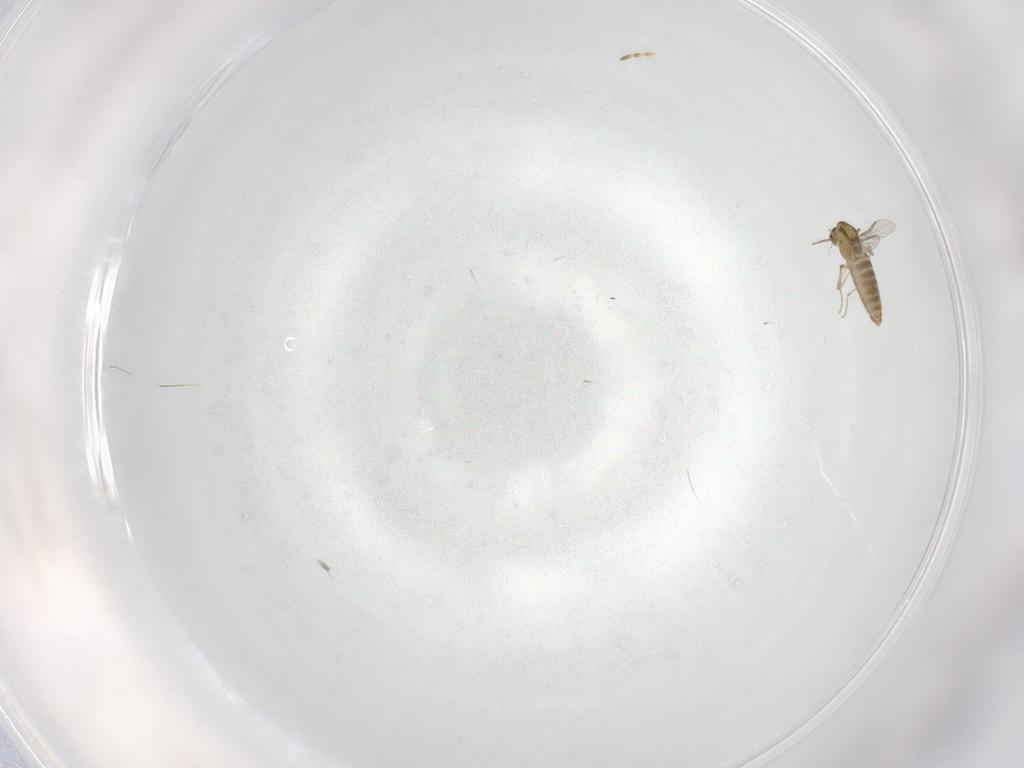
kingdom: Animalia
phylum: Arthropoda
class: Insecta
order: Diptera
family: Chironomidae
